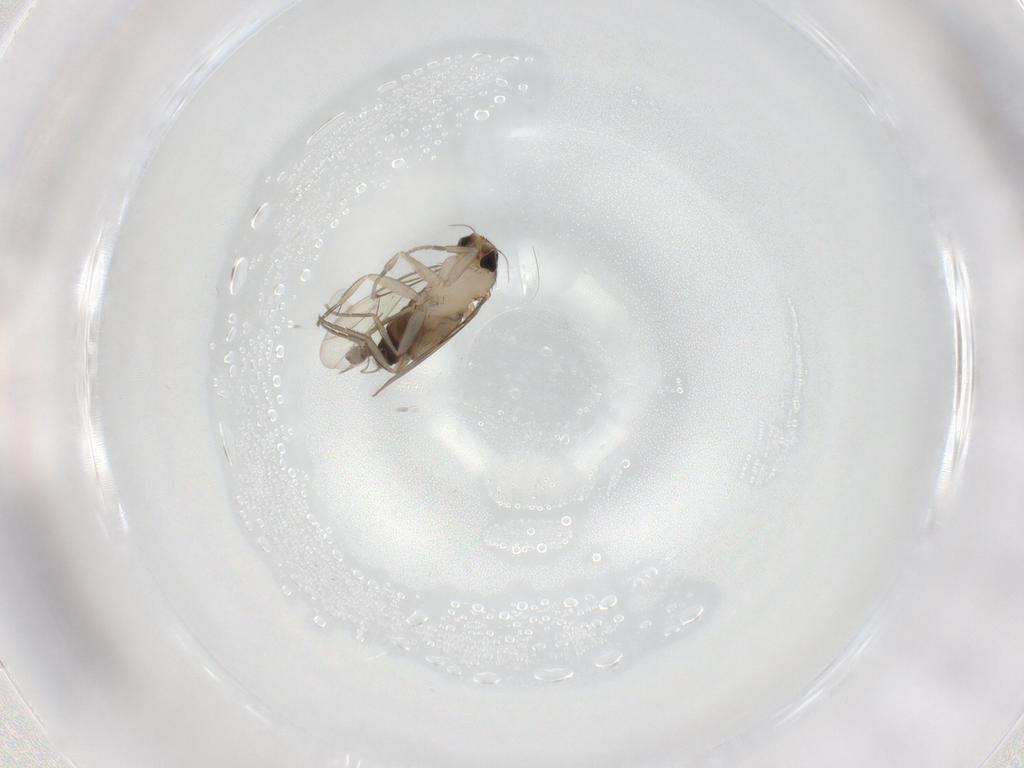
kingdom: Animalia
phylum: Arthropoda
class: Insecta
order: Diptera
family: Cecidomyiidae
